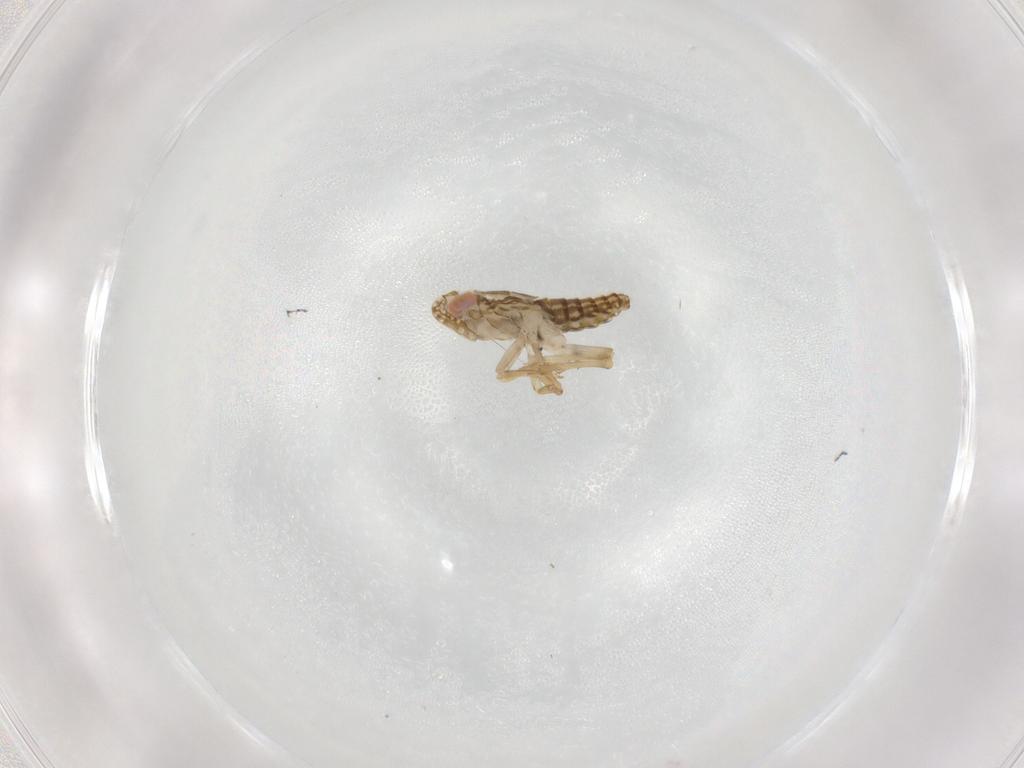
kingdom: Animalia
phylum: Arthropoda
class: Insecta
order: Hemiptera
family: Delphacidae
